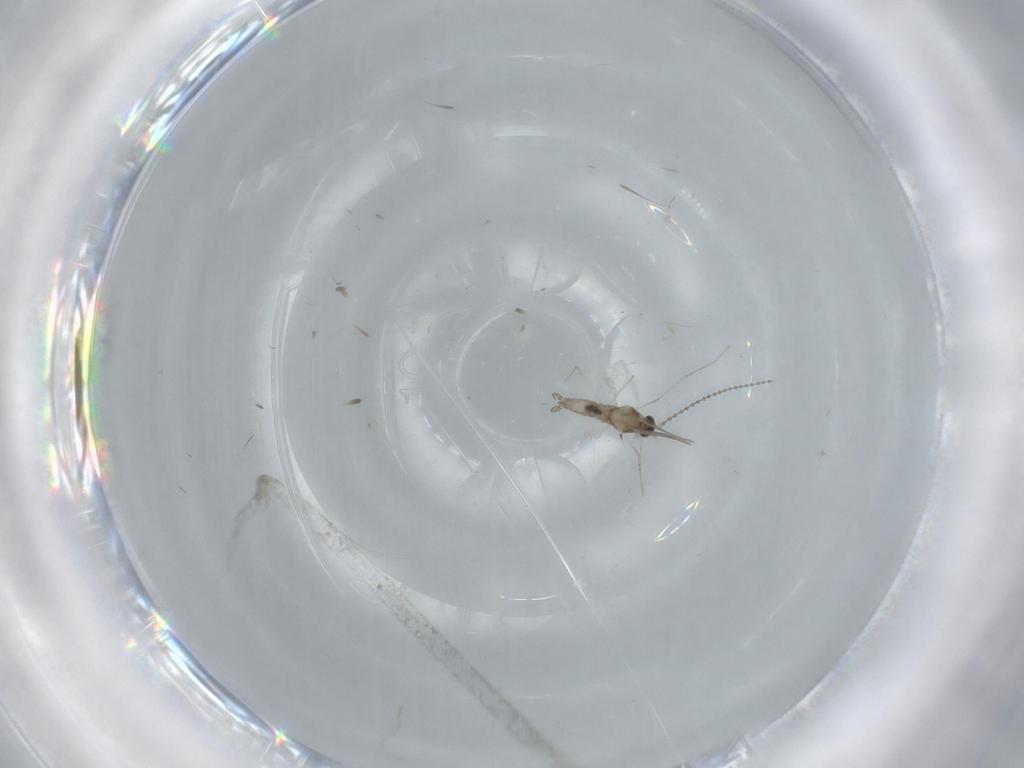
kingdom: Animalia
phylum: Arthropoda
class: Insecta
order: Diptera
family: Cecidomyiidae
